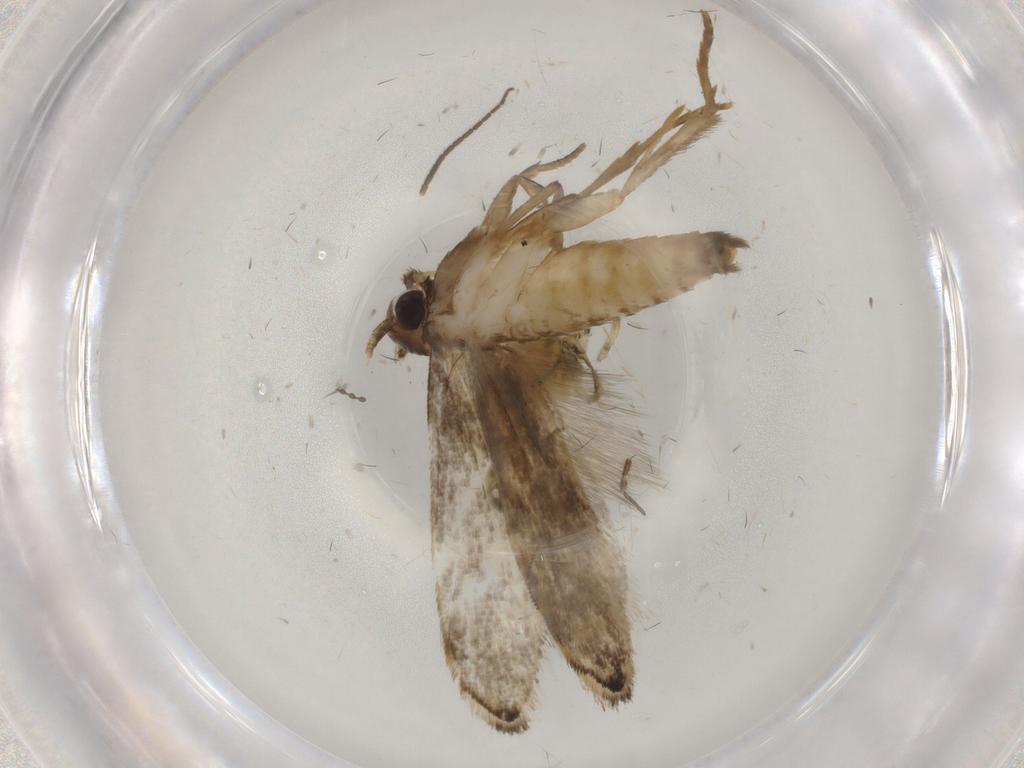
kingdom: Animalia
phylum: Arthropoda
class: Insecta
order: Lepidoptera
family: Tineidae
